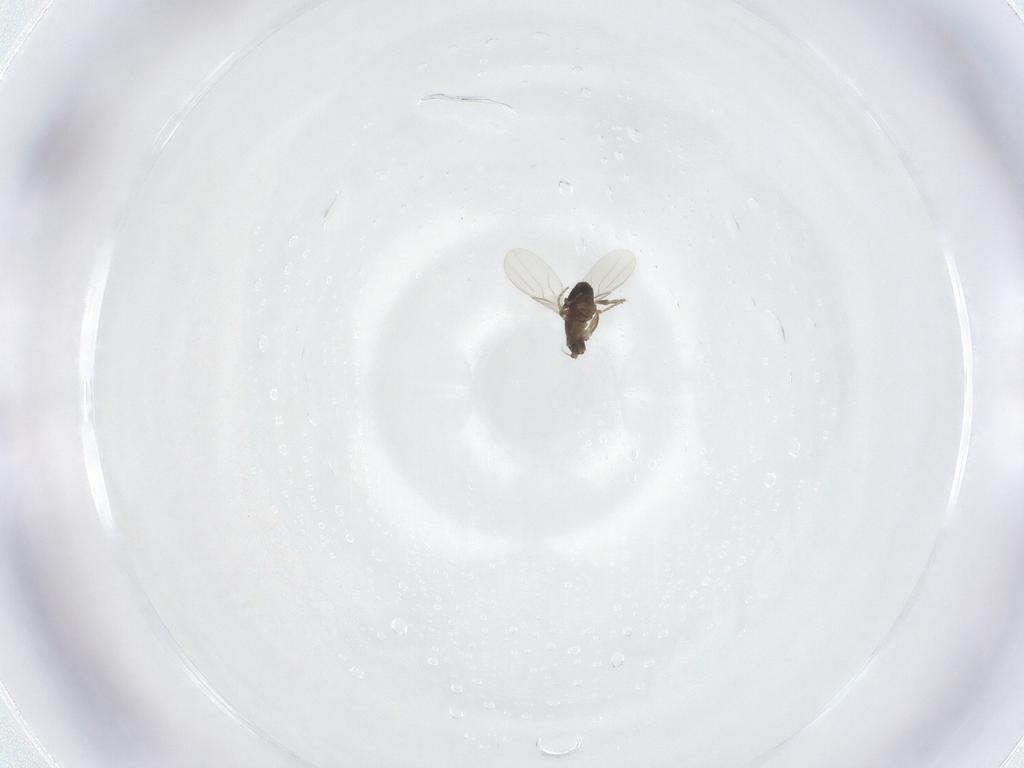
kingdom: Animalia
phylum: Arthropoda
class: Insecta
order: Diptera
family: Phoridae
